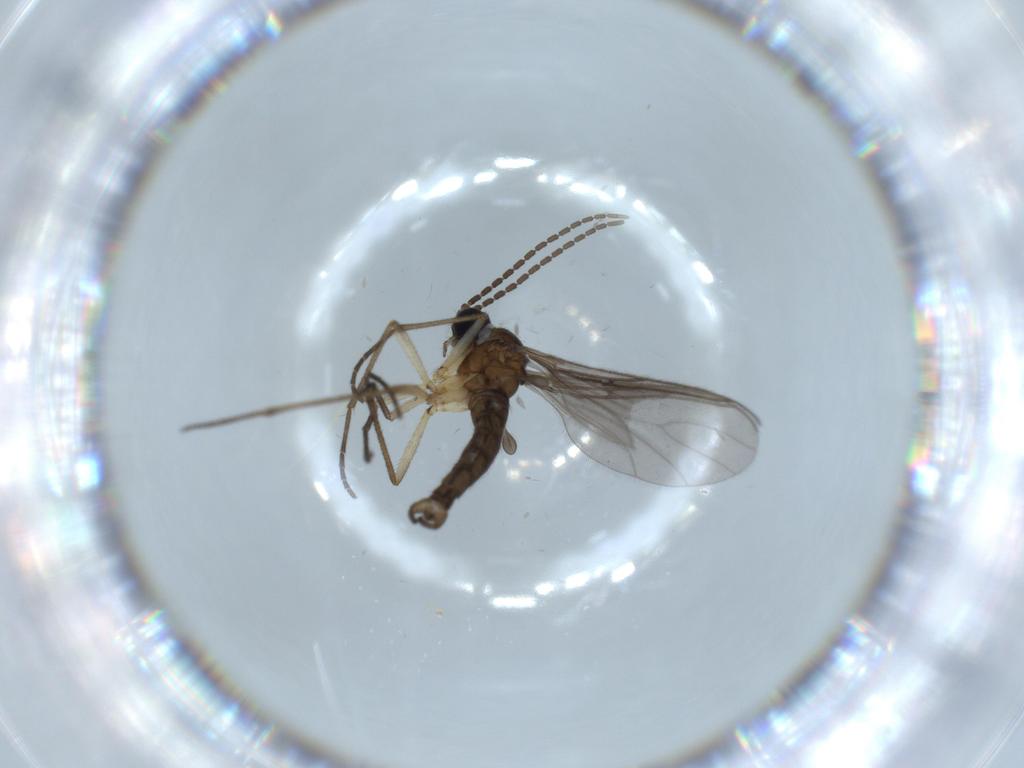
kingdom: Animalia
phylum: Arthropoda
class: Insecta
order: Diptera
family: Sciaridae
